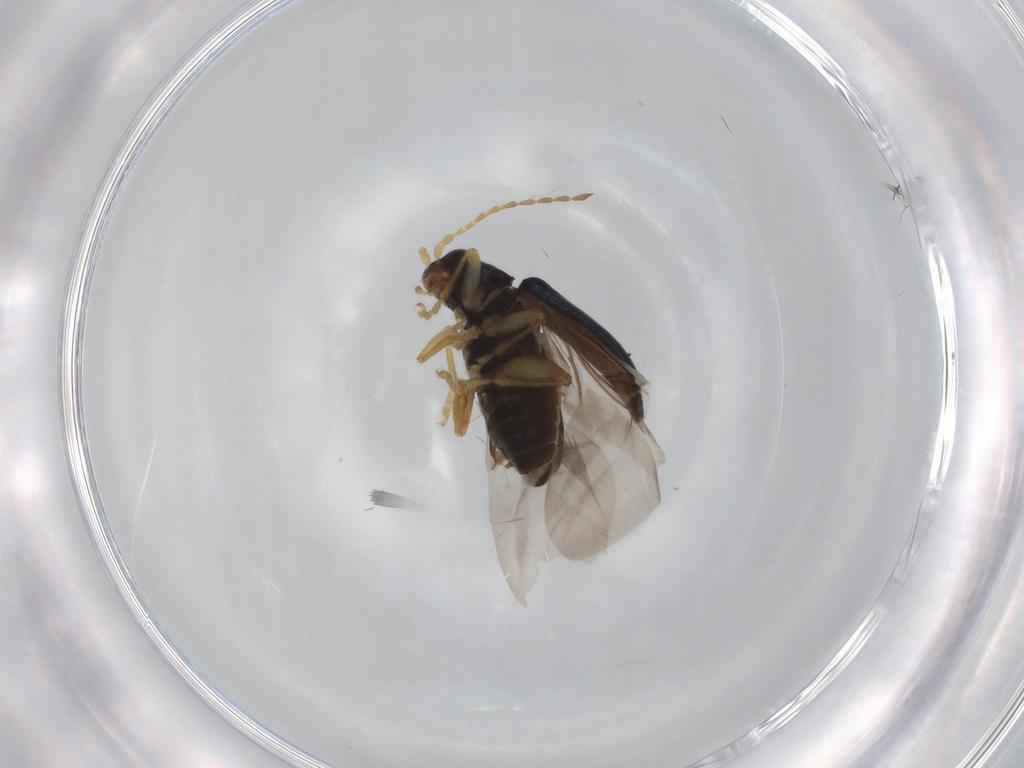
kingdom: Animalia
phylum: Arthropoda
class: Insecta
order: Coleoptera
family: Chrysomelidae
